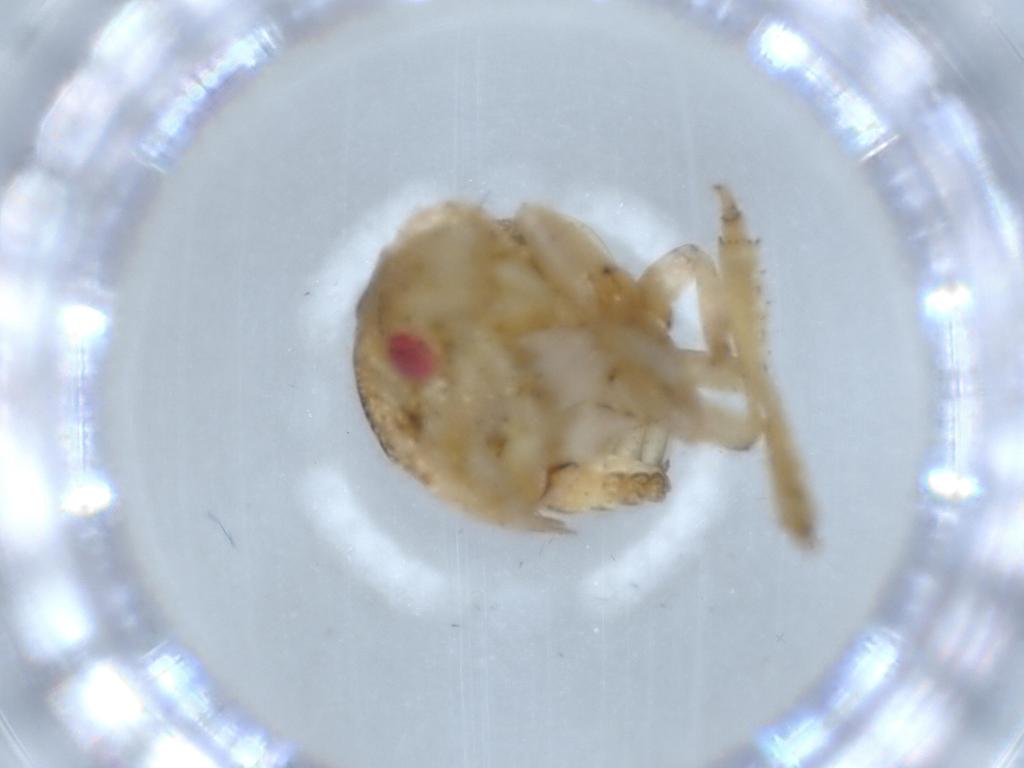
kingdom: Animalia
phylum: Arthropoda
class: Insecta
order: Hemiptera
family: Acanaloniidae
